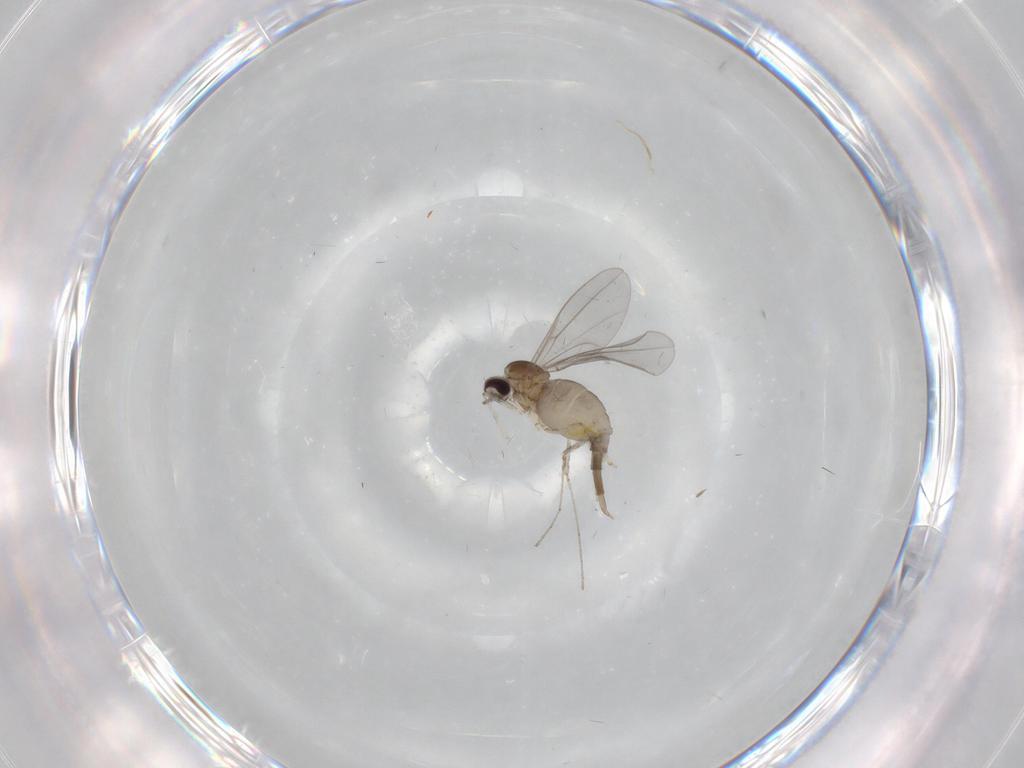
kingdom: Animalia
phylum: Arthropoda
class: Insecta
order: Diptera
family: Cecidomyiidae
